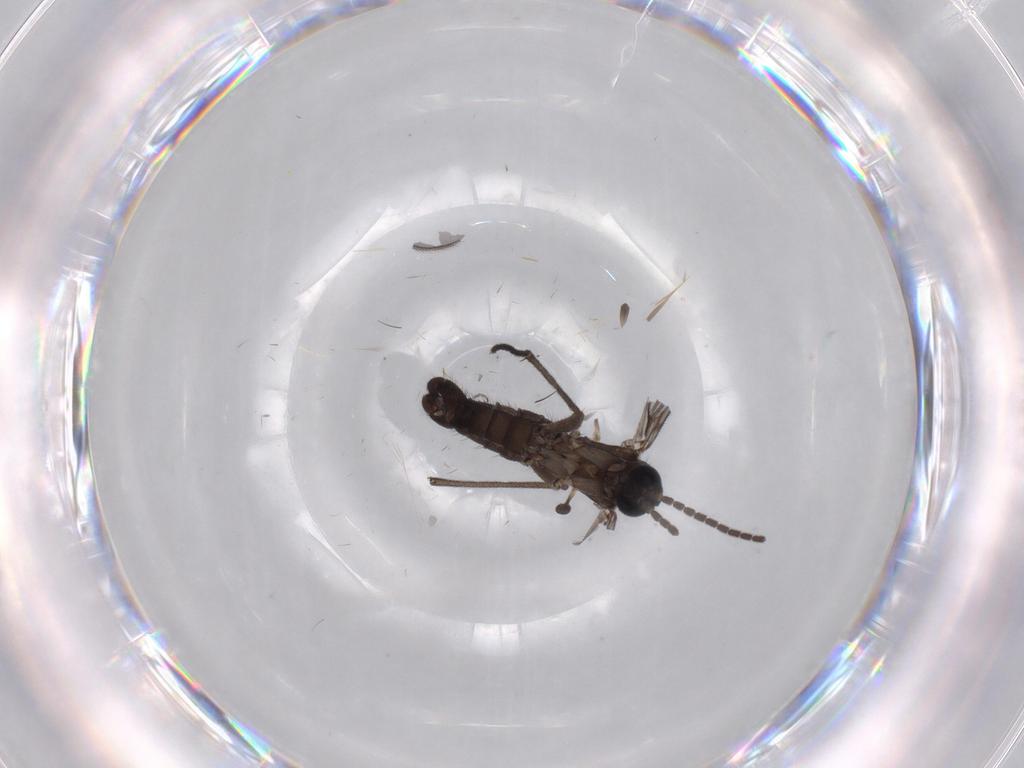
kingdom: Animalia
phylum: Arthropoda
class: Insecta
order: Diptera
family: Sciaridae
